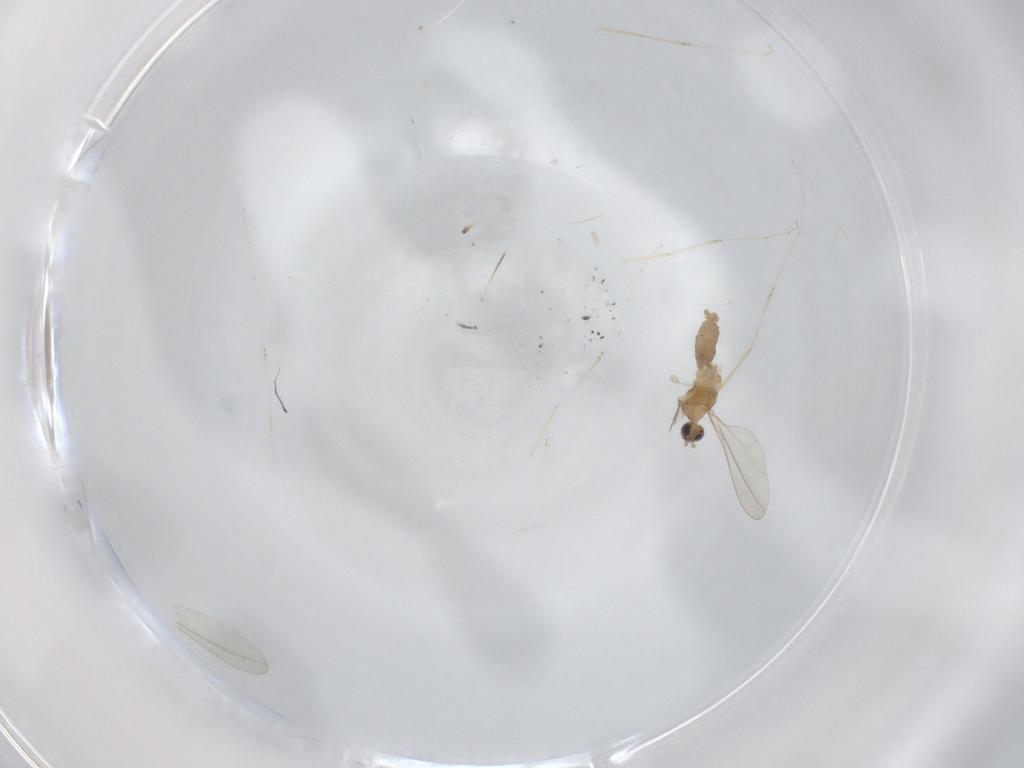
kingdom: Animalia
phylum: Arthropoda
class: Insecta
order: Diptera
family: Cecidomyiidae
